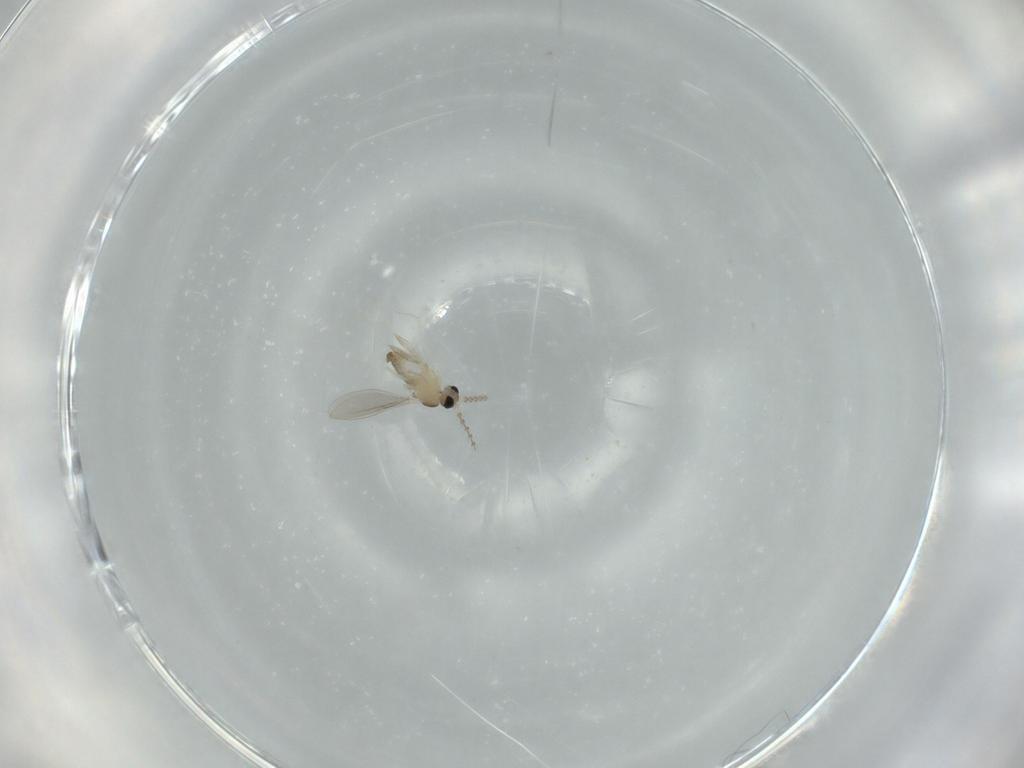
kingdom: Animalia
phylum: Arthropoda
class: Insecta
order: Diptera
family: Cecidomyiidae
